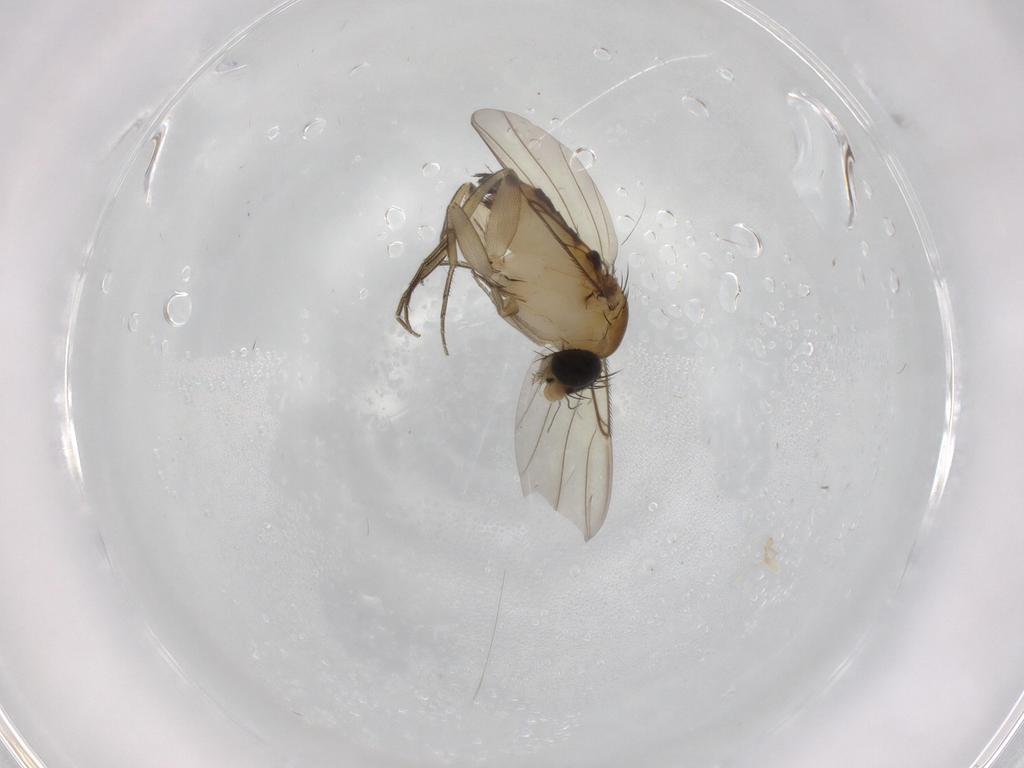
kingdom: Animalia
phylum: Arthropoda
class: Insecta
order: Diptera
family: Phoridae
